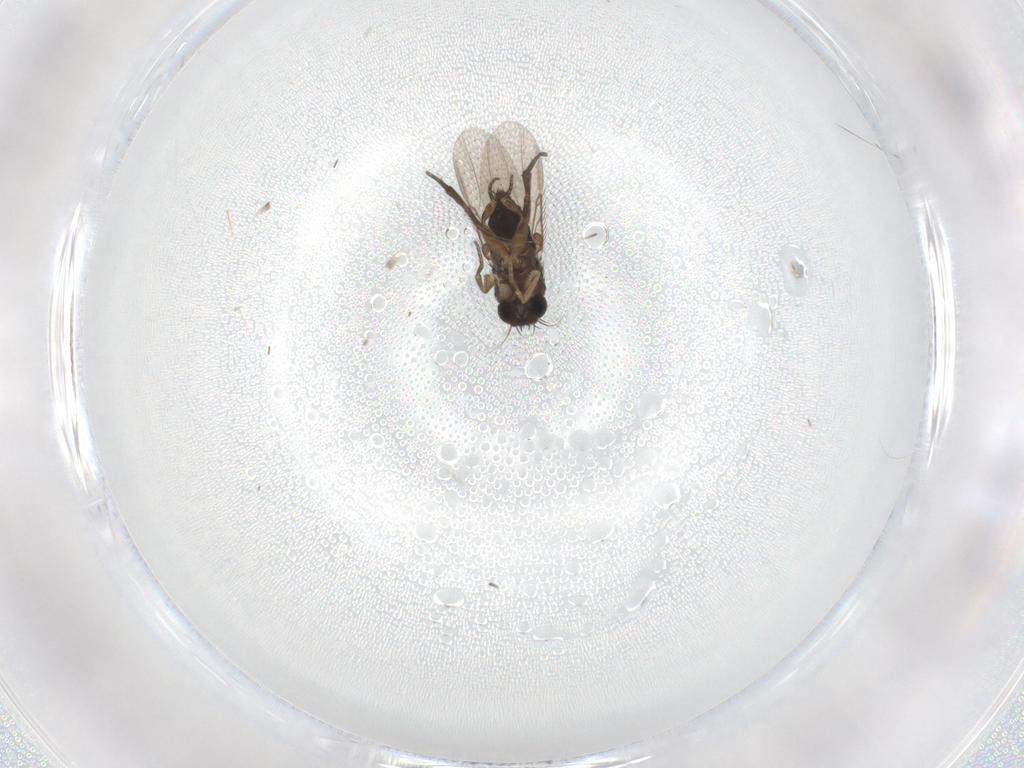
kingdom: Animalia
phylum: Arthropoda
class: Insecta
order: Diptera
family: Phoridae
